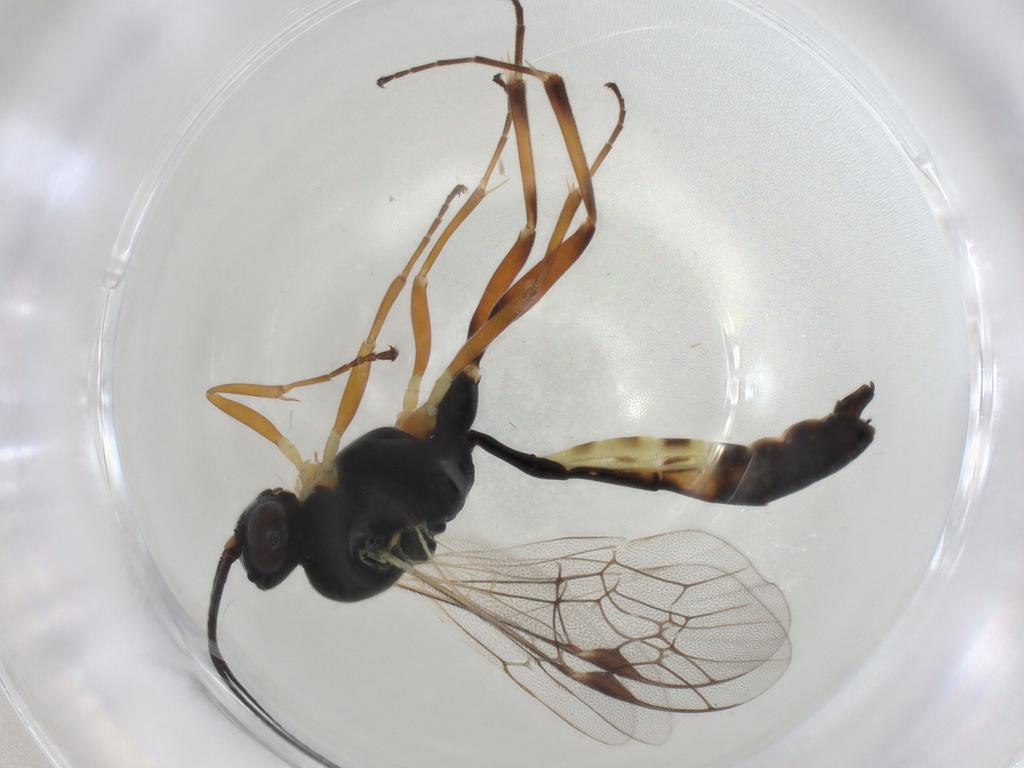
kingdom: Animalia
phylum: Arthropoda
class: Insecta
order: Hymenoptera
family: Ichneumonidae
